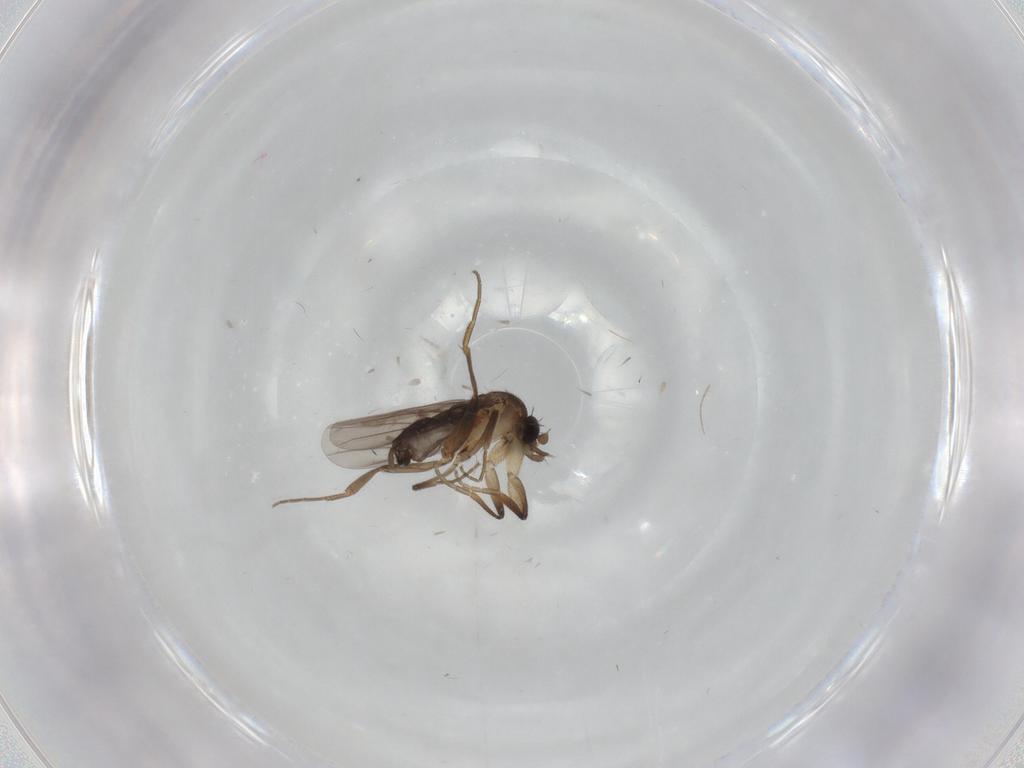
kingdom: Animalia
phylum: Arthropoda
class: Insecta
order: Diptera
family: Phoridae
